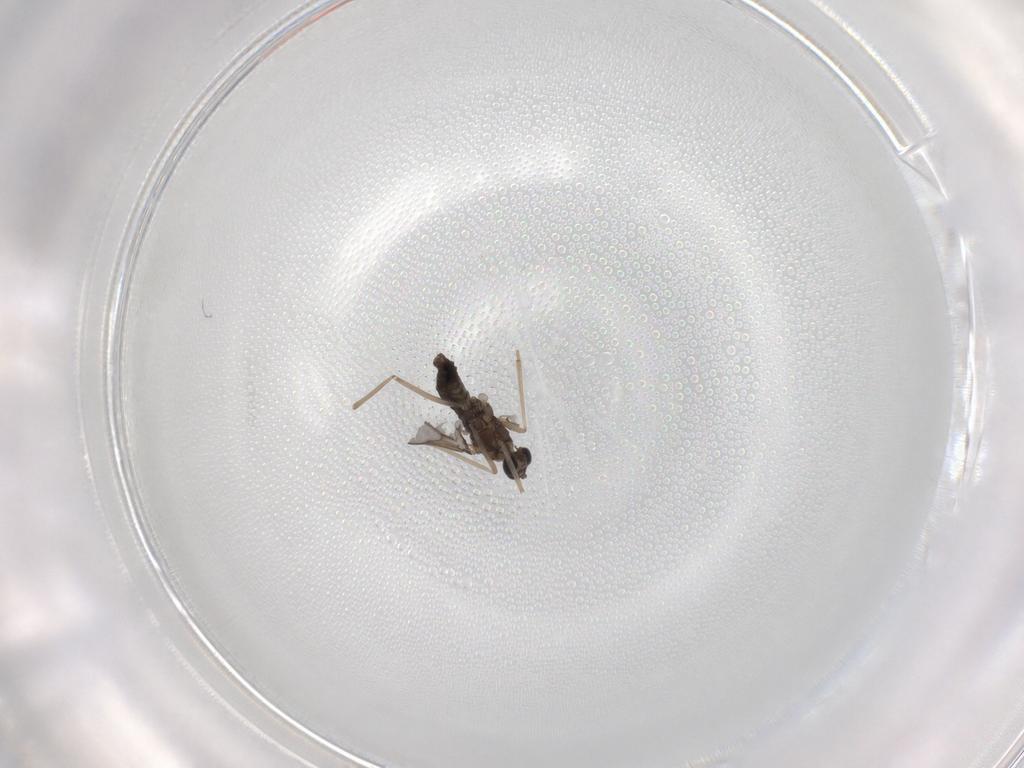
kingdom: Animalia
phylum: Arthropoda
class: Insecta
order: Diptera
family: Cecidomyiidae
